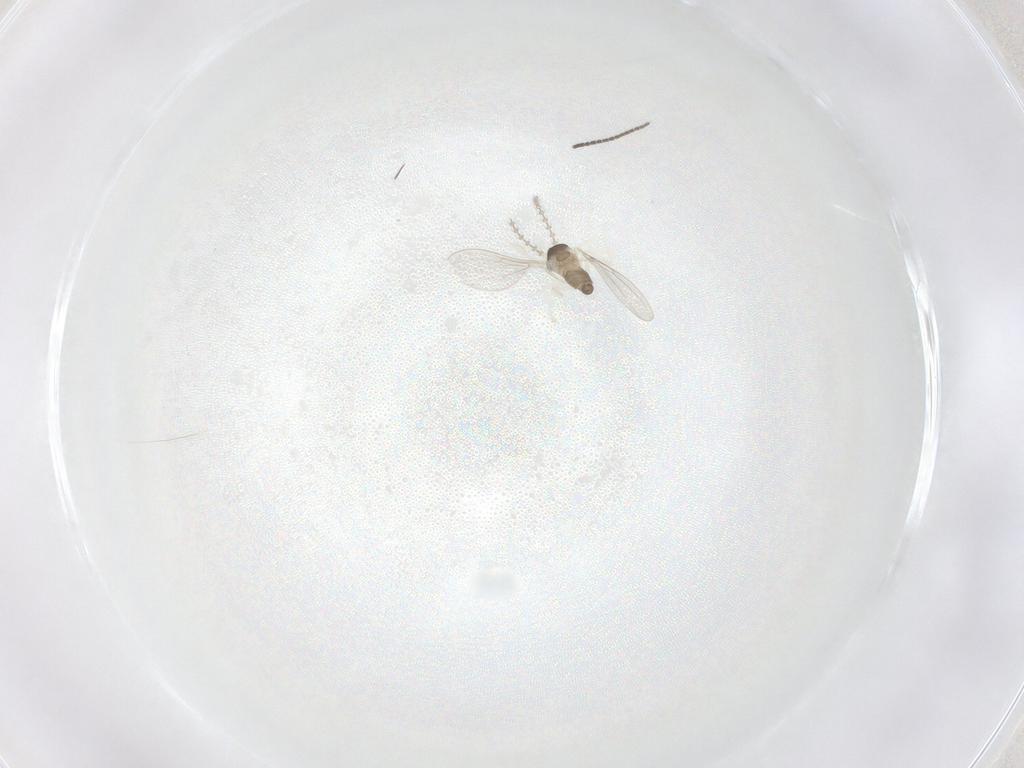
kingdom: Animalia
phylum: Arthropoda
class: Insecta
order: Diptera
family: Cecidomyiidae
